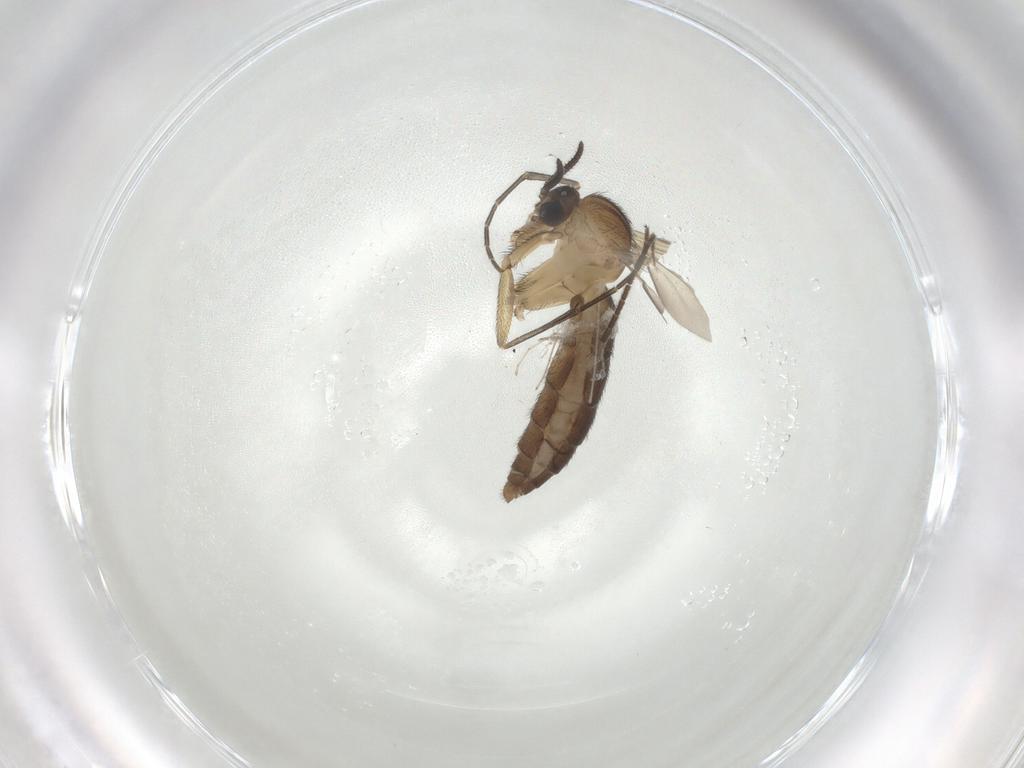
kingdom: Animalia
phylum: Arthropoda
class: Insecta
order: Diptera
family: Keroplatidae
